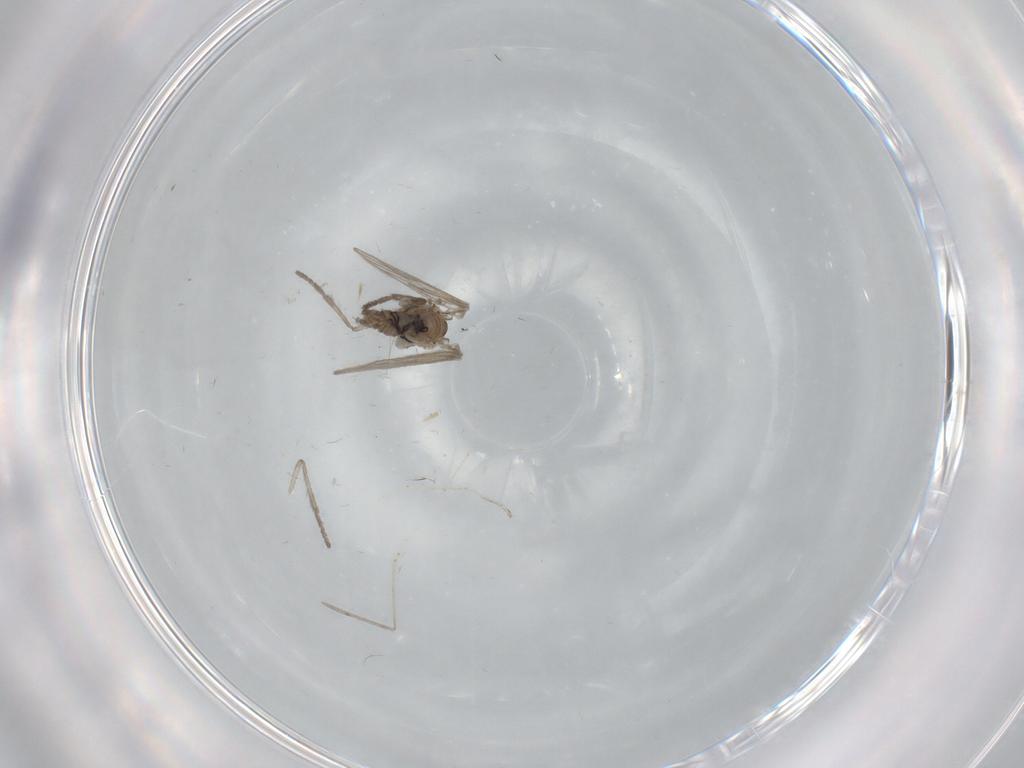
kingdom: Animalia
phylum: Arthropoda
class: Insecta
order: Diptera
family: Psychodidae
